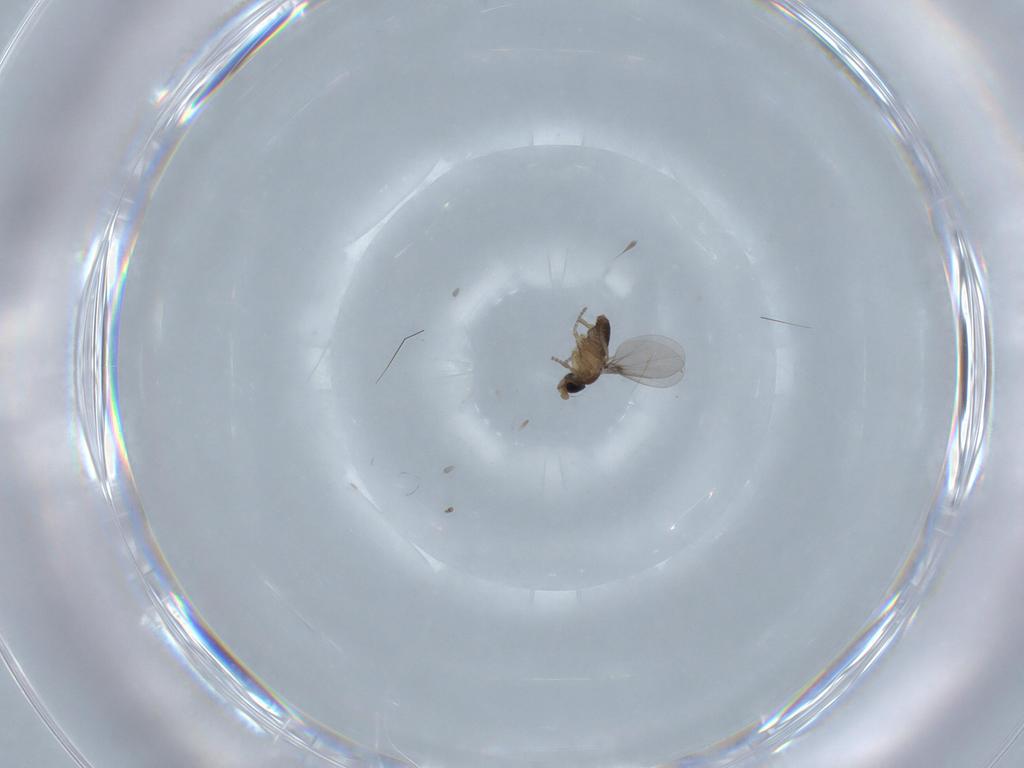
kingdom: Animalia
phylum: Arthropoda
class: Insecta
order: Diptera
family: Phoridae
